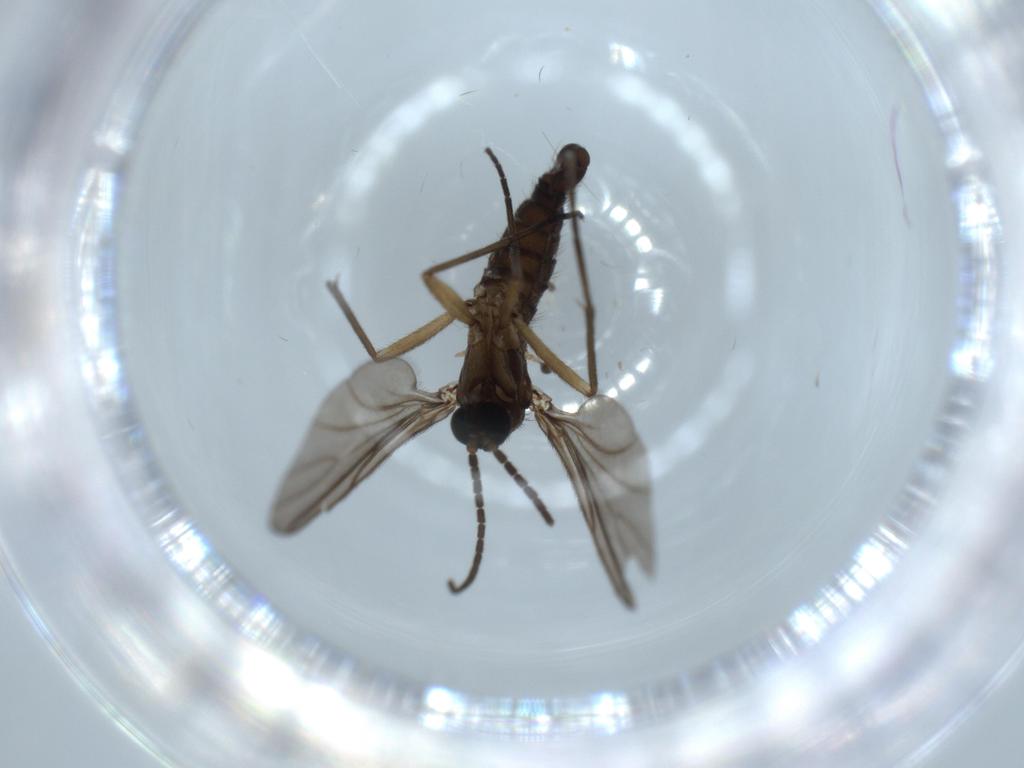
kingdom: Animalia
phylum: Arthropoda
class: Insecta
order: Diptera
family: Sciaridae
